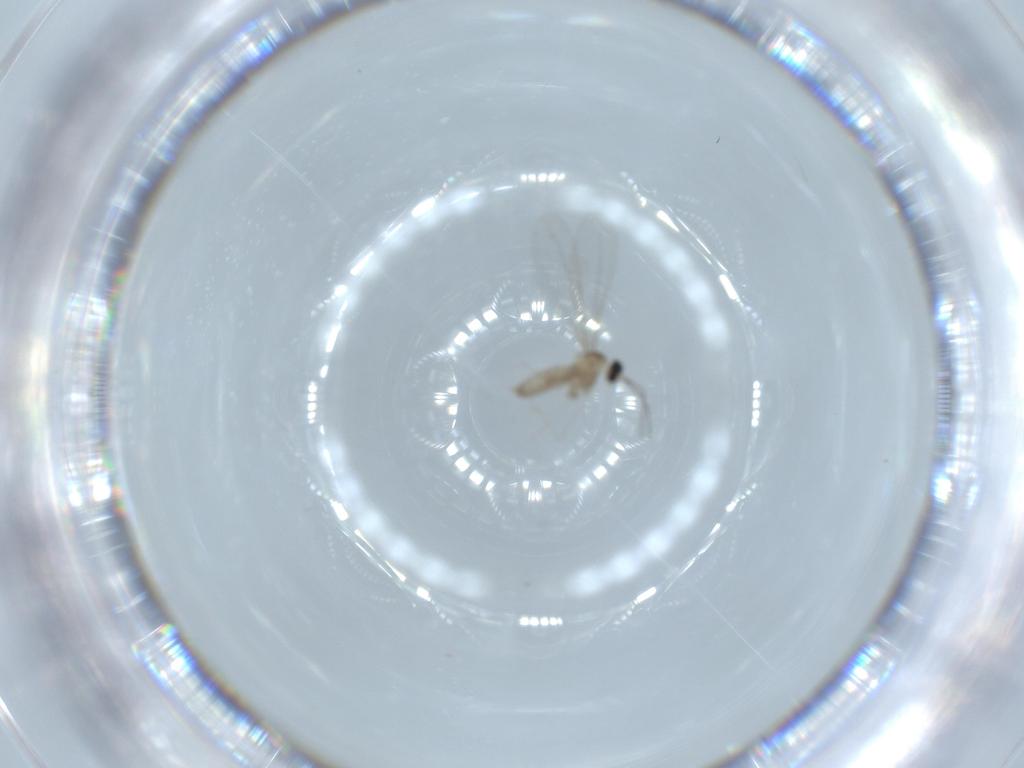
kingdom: Animalia
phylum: Arthropoda
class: Insecta
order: Diptera
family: Cecidomyiidae
